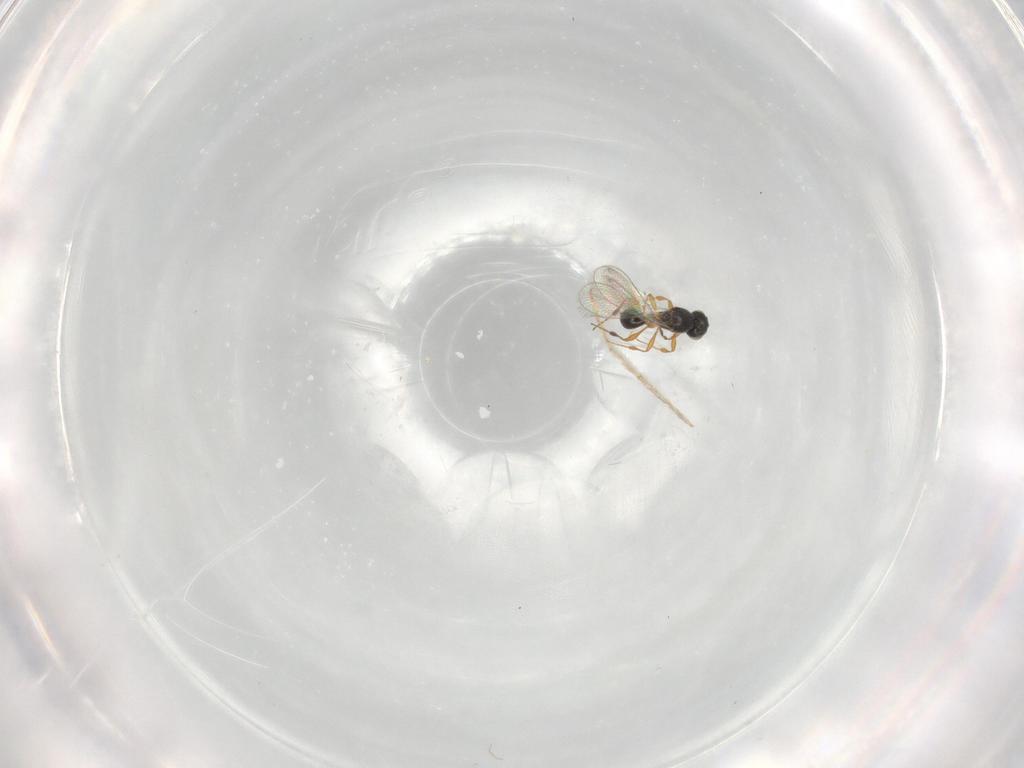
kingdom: Animalia
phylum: Arthropoda
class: Insecta
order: Hymenoptera
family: Platygastridae
